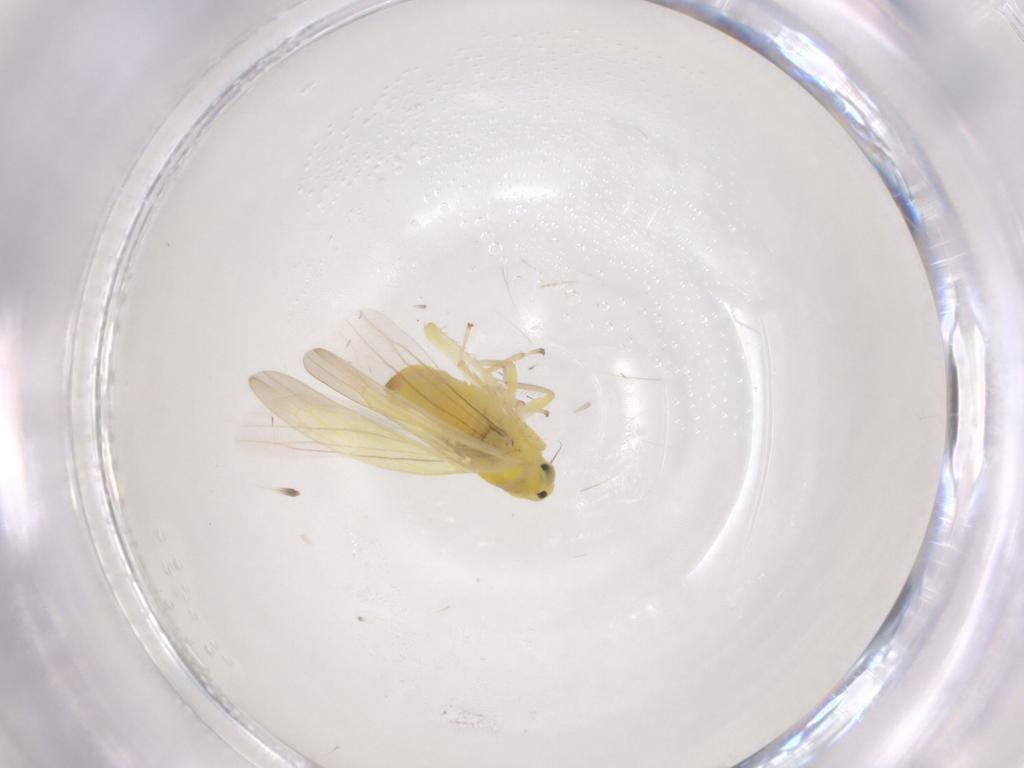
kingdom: Animalia
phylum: Arthropoda
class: Insecta
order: Hemiptera
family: Cicadellidae
